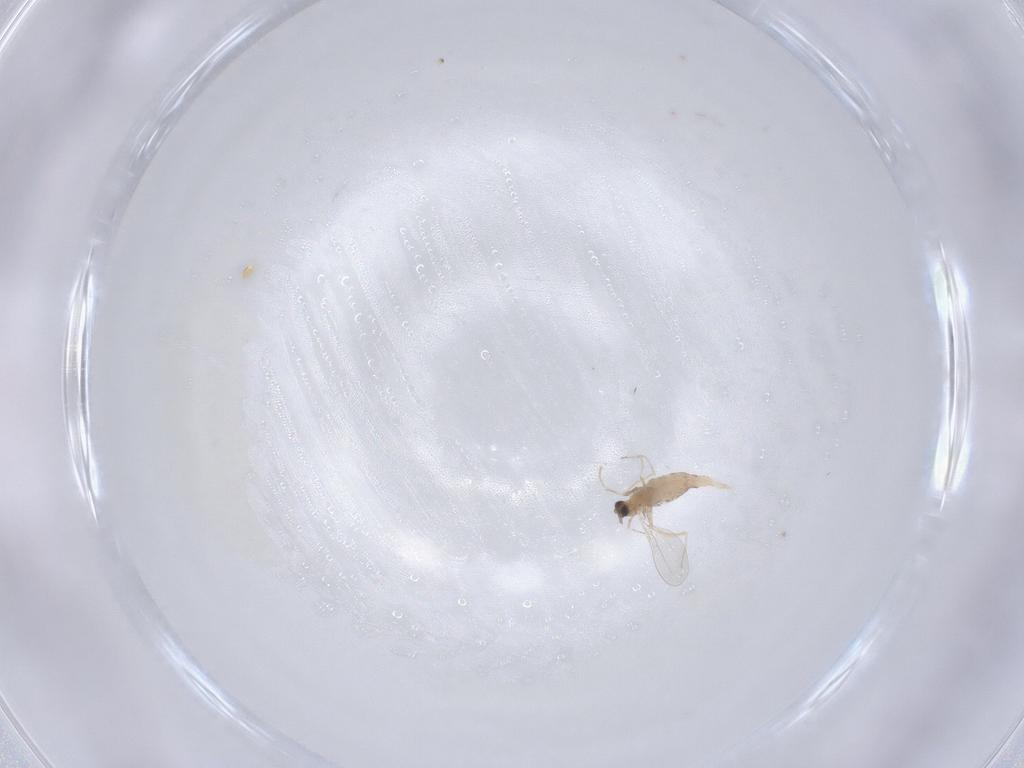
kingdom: Animalia
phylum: Arthropoda
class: Insecta
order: Diptera
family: Cecidomyiidae
